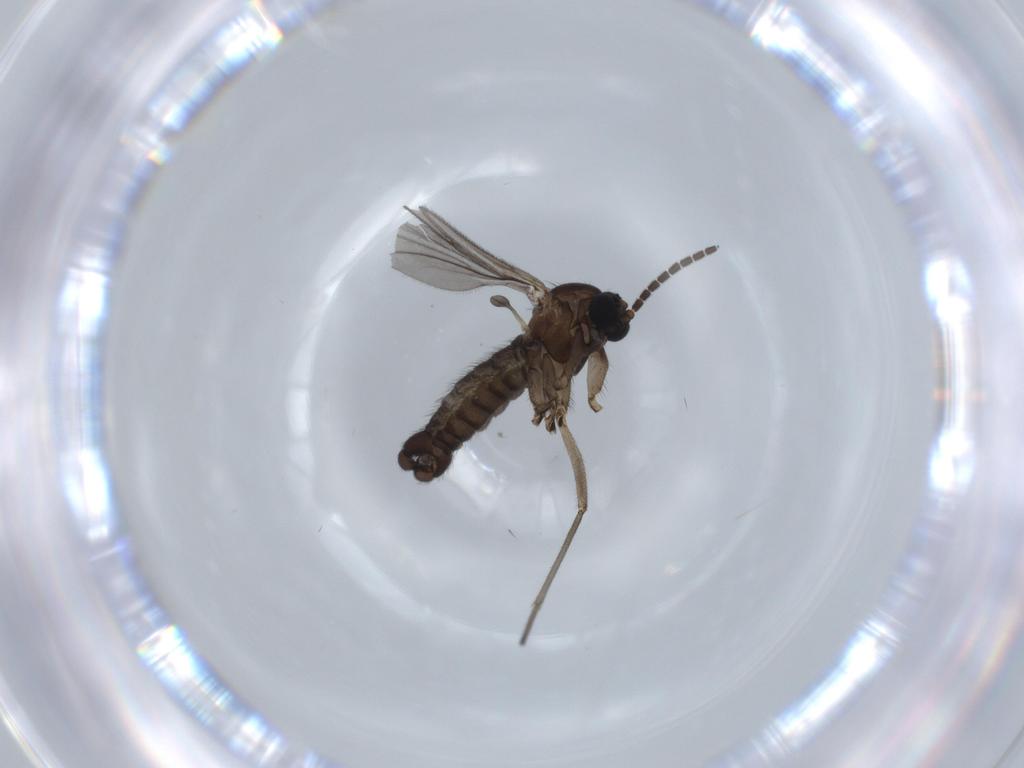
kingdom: Animalia
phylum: Arthropoda
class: Insecta
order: Diptera
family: Sciaridae
